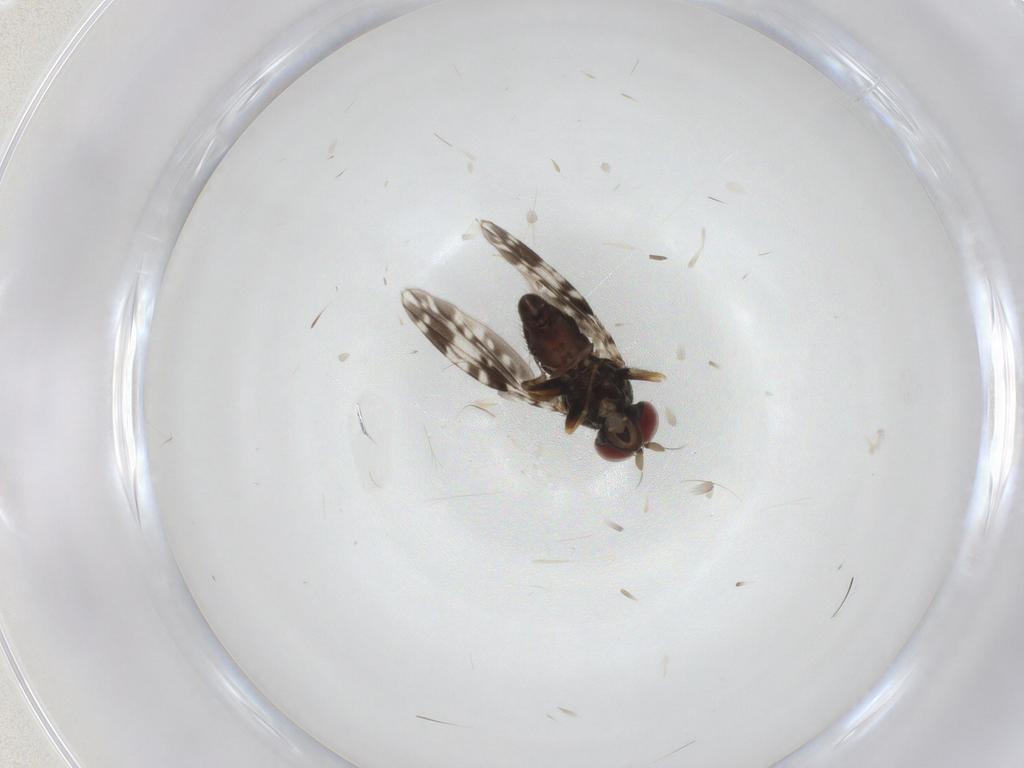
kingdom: Animalia
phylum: Arthropoda
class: Insecta
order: Diptera
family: Ephydridae
